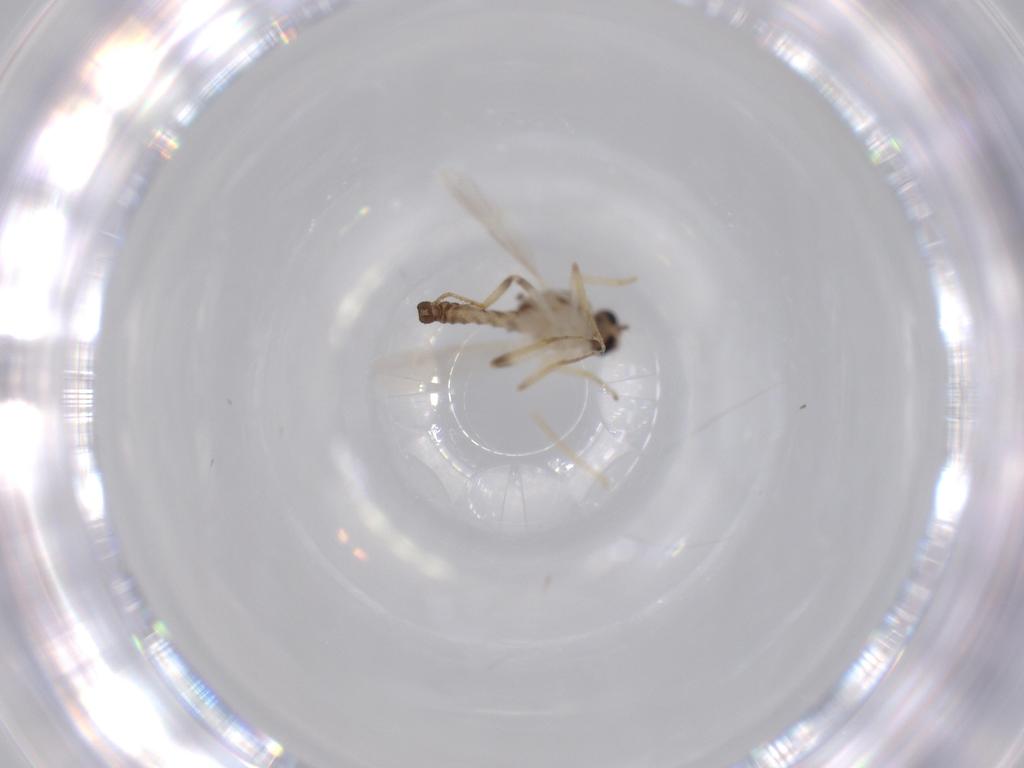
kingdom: Animalia
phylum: Arthropoda
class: Insecta
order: Diptera
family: Ceratopogonidae
